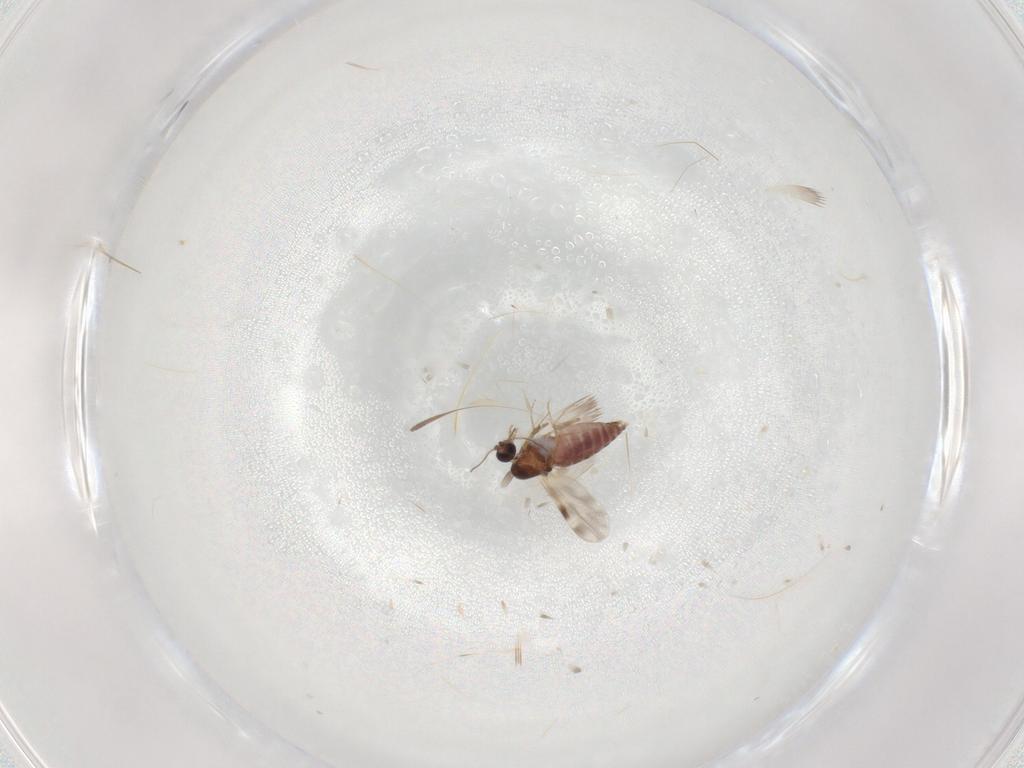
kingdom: Animalia
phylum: Arthropoda
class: Insecta
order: Diptera
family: Ceratopogonidae
